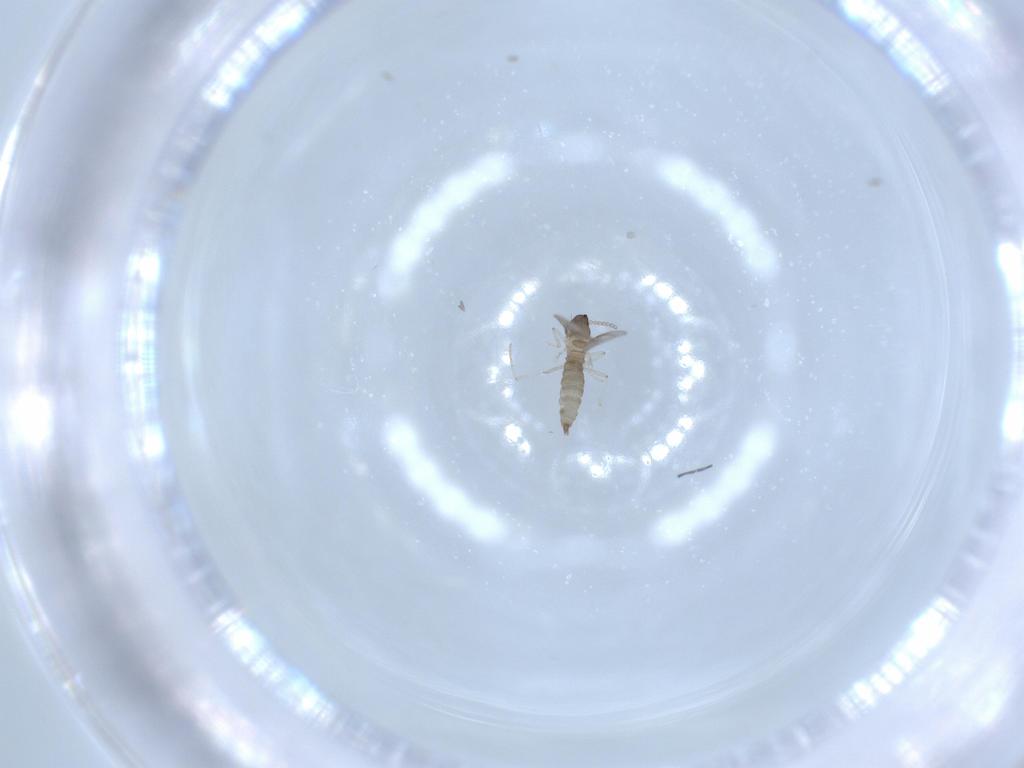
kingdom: Animalia
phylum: Arthropoda
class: Insecta
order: Diptera
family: Cecidomyiidae
